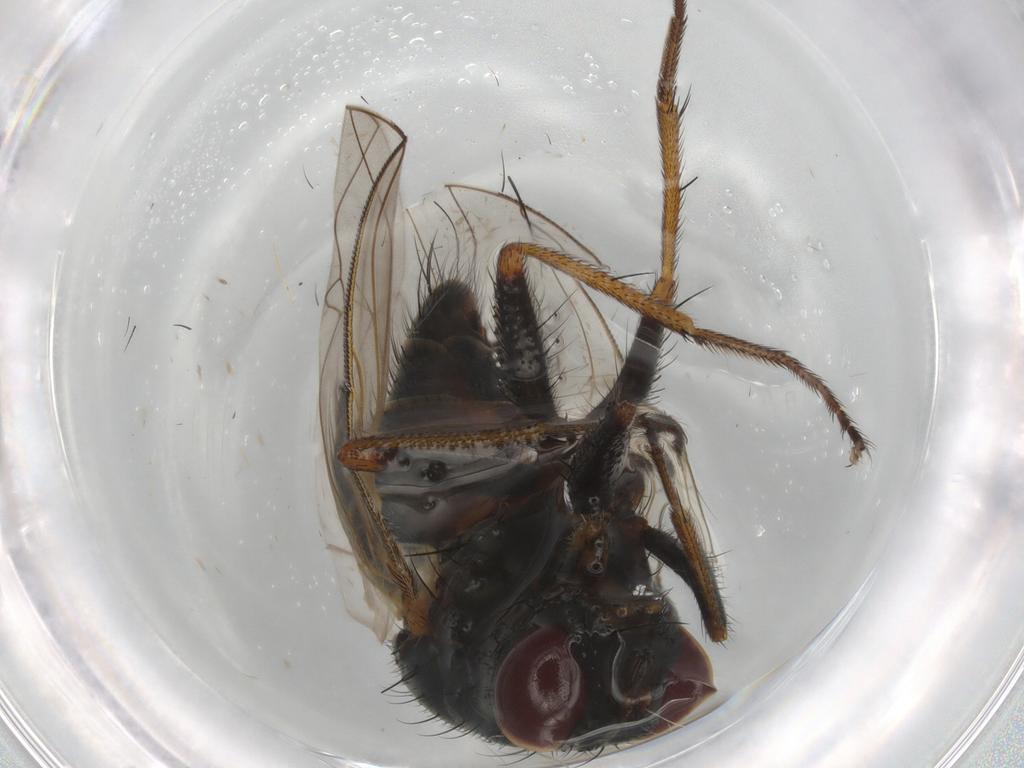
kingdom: Animalia
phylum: Arthropoda
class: Insecta
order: Diptera
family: Muscidae
